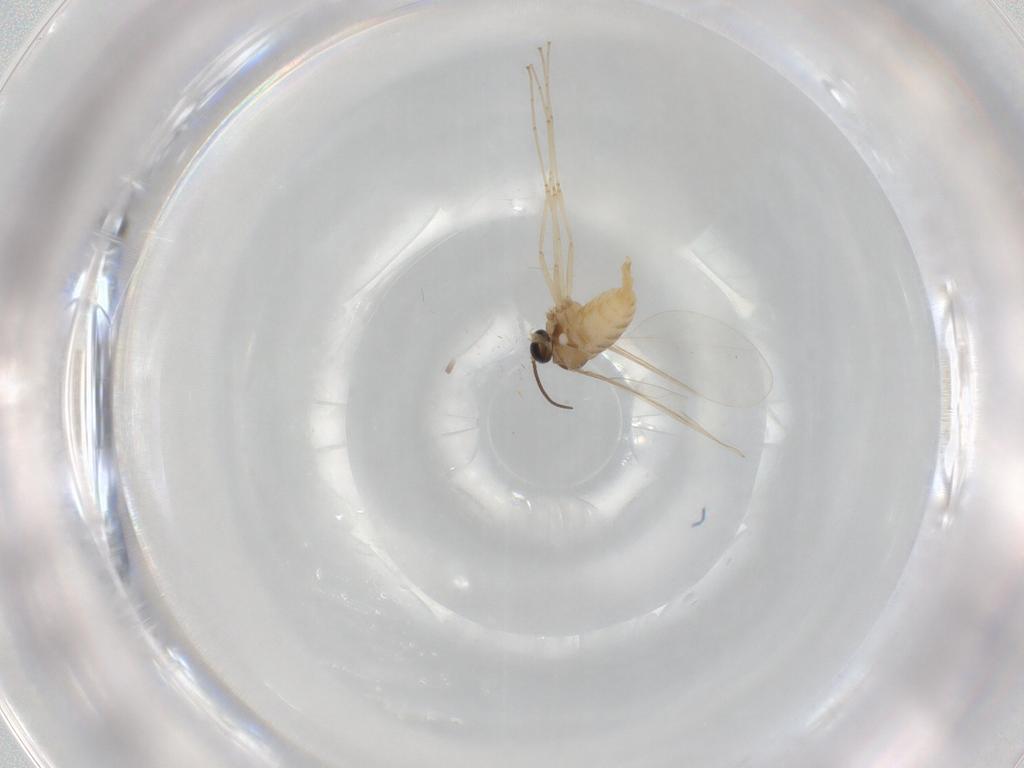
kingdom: Animalia
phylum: Arthropoda
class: Insecta
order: Diptera
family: Cecidomyiidae
